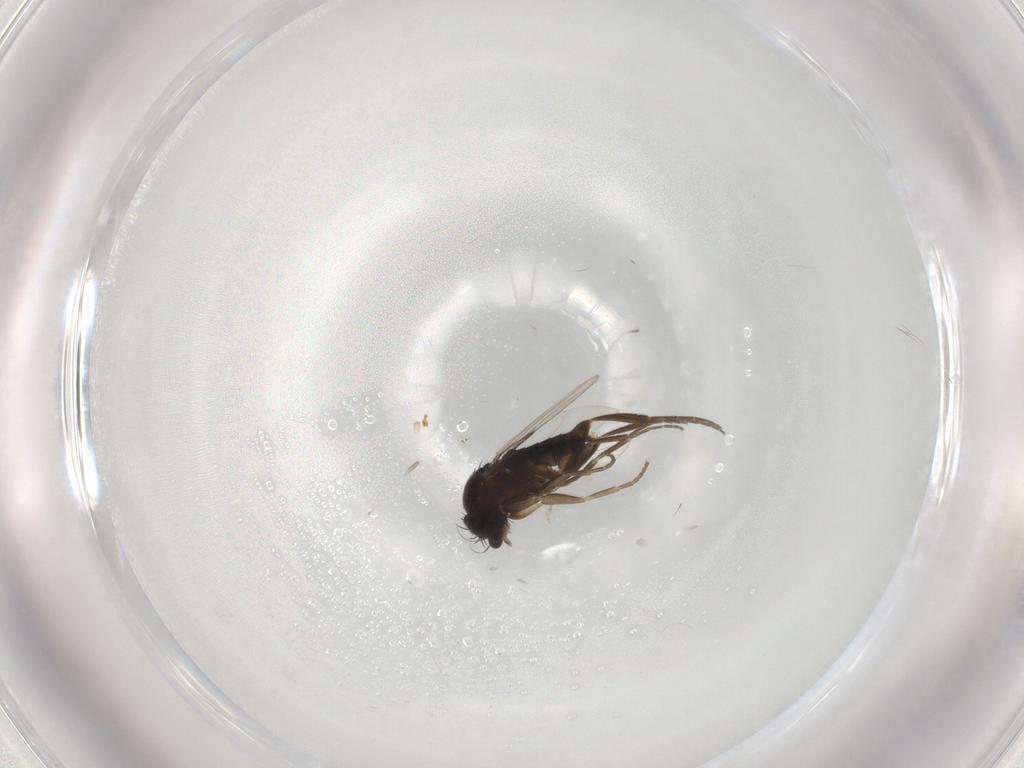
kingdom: Animalia
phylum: Arthropoda
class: Insecta
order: Diptera
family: Phoridae
